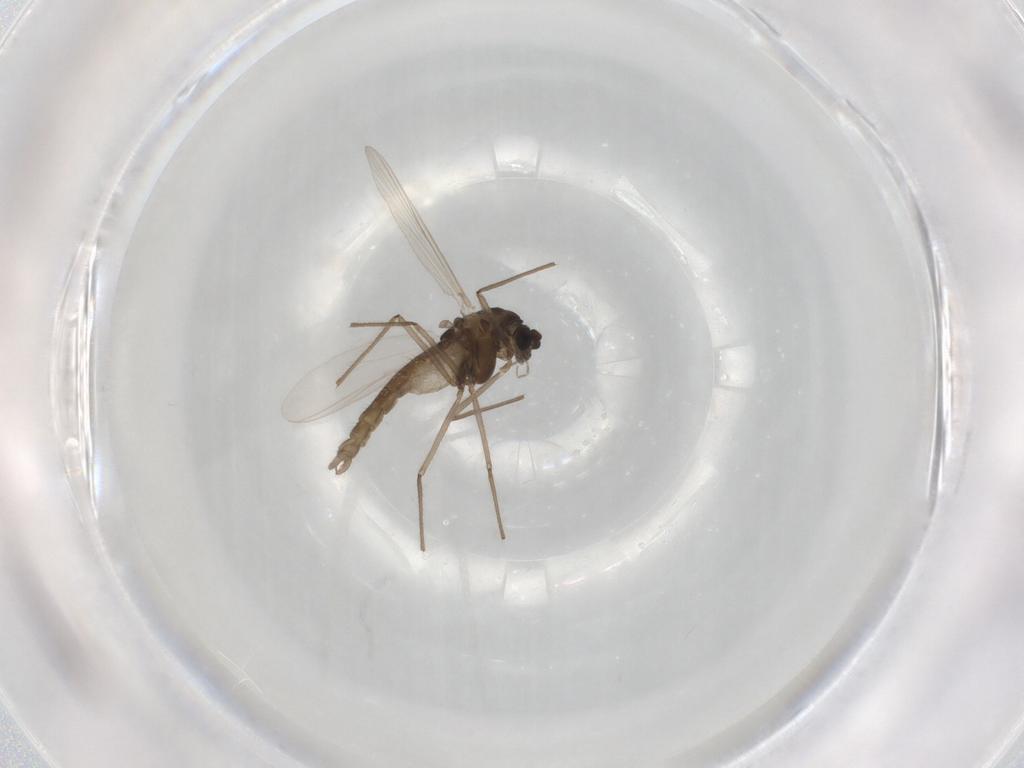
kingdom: Animalia
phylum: Arthropoda
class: Insecta
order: Diptera
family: Psychodidae
